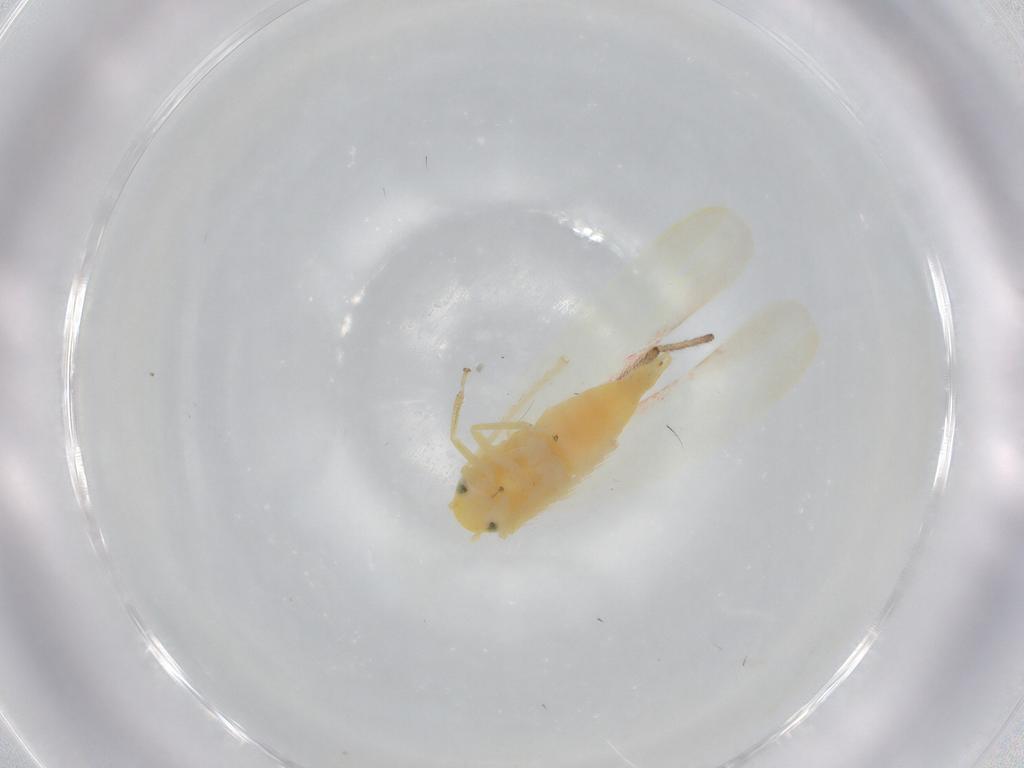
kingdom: Animalia
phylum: Arthropoda
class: Insecta
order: Hemiptera
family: Cicadellidae
